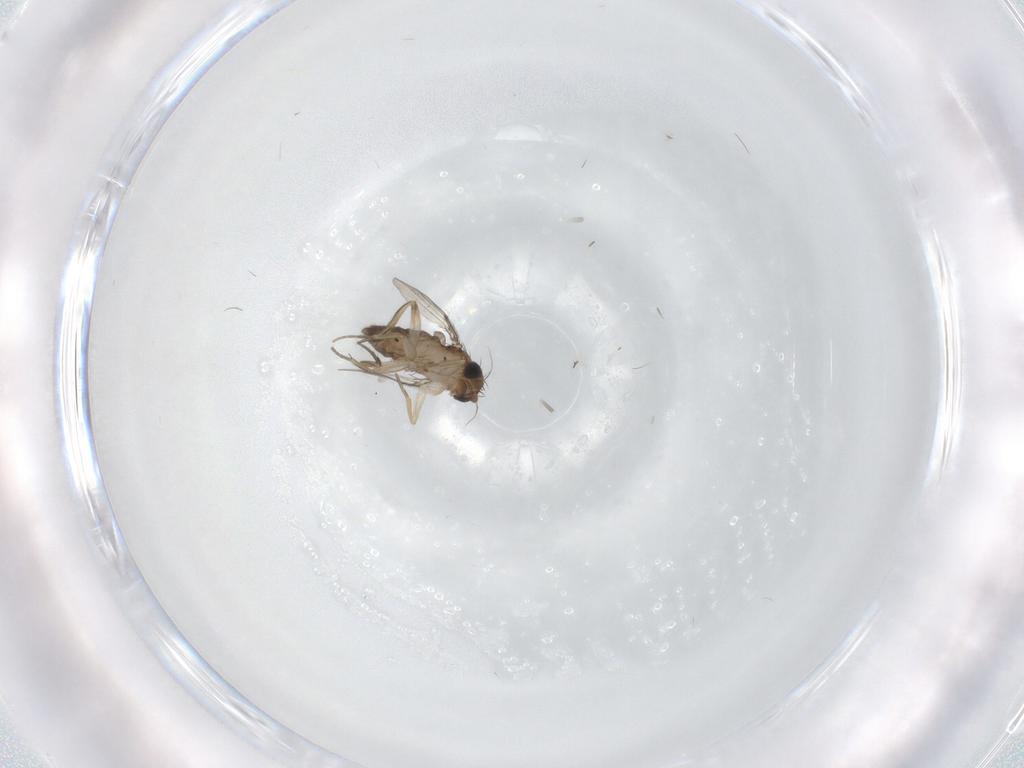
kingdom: Animalia
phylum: Arthropoda
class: Insecta
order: Diptera
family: Phoridae
